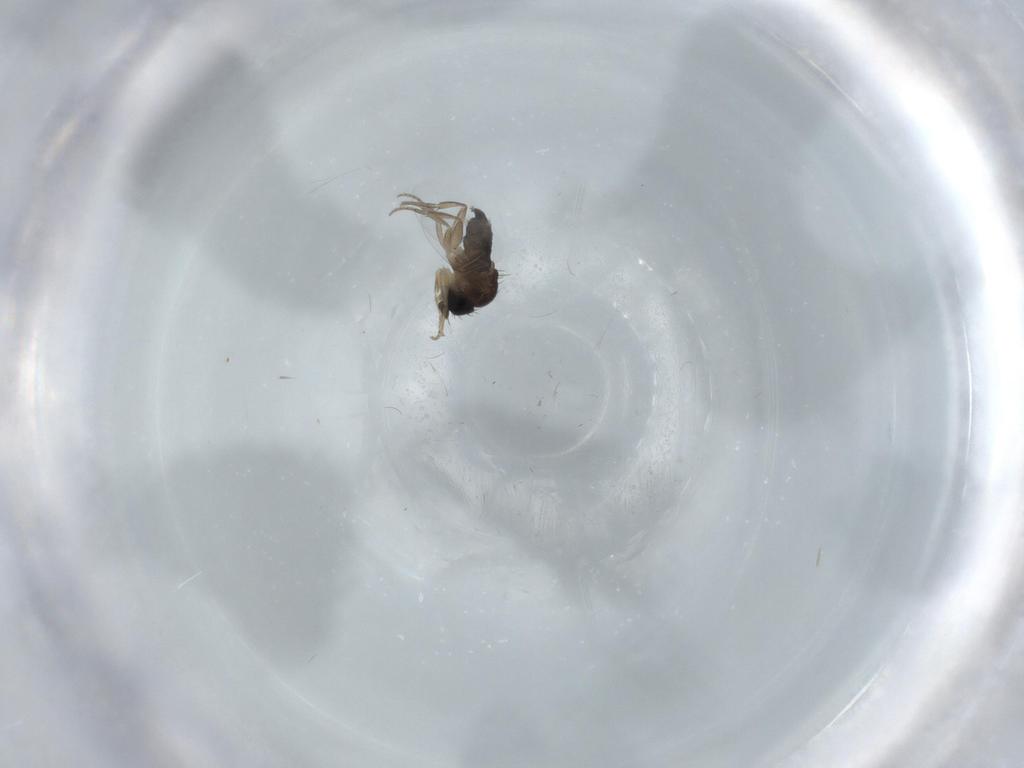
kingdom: Animalia
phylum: Arthropoda
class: Insecta
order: Diptera
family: Phoridae
